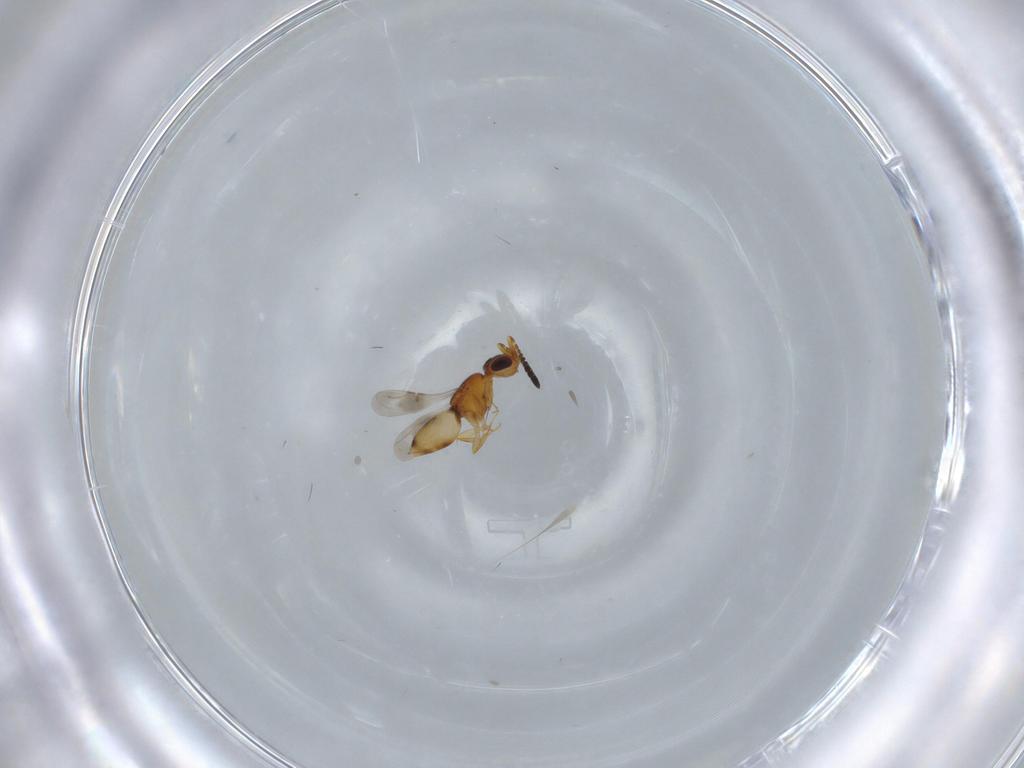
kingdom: Animalia
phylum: Arthropoda
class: Insecta
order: Hymenoptera
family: Ceraphronidae
